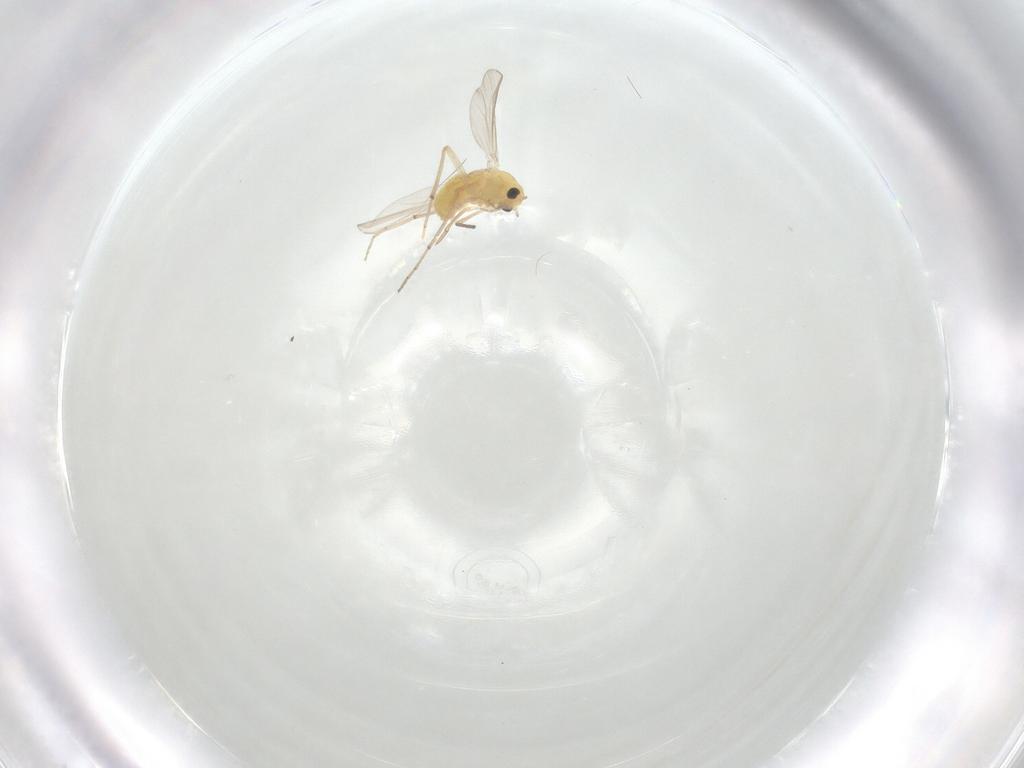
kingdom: Animalia
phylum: Arthropoda
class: Insecta
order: Diptera
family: Chironomidae
